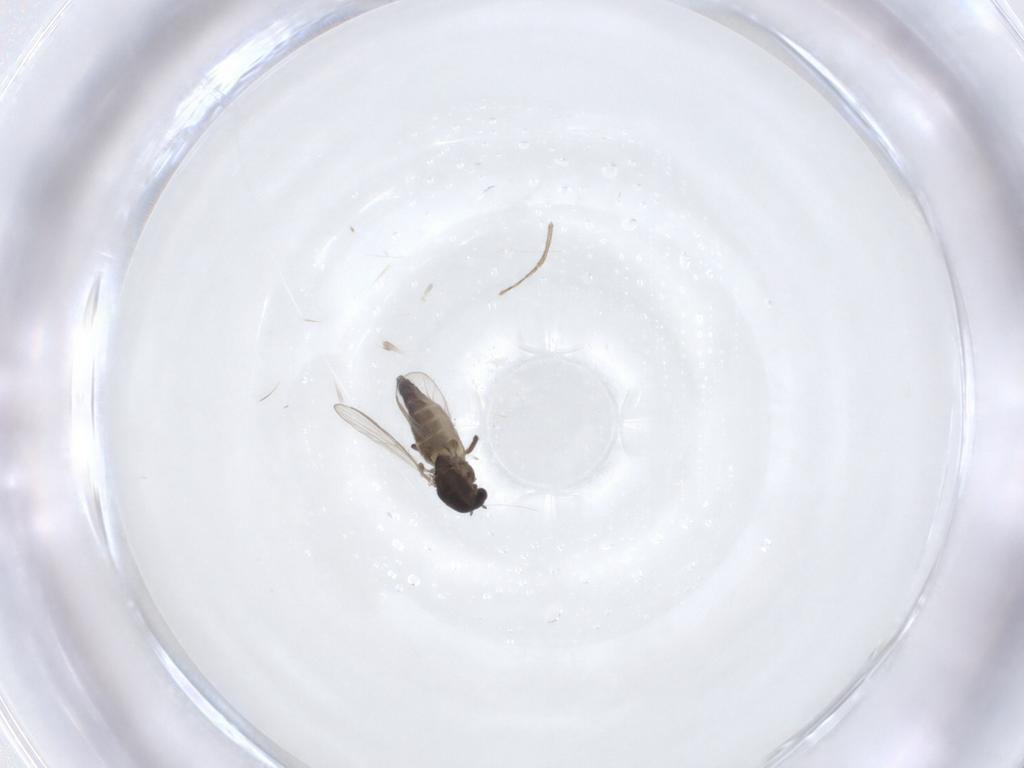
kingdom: Animalia
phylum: Arthropoda
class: Insecta
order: Diptera
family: Chironomidae
